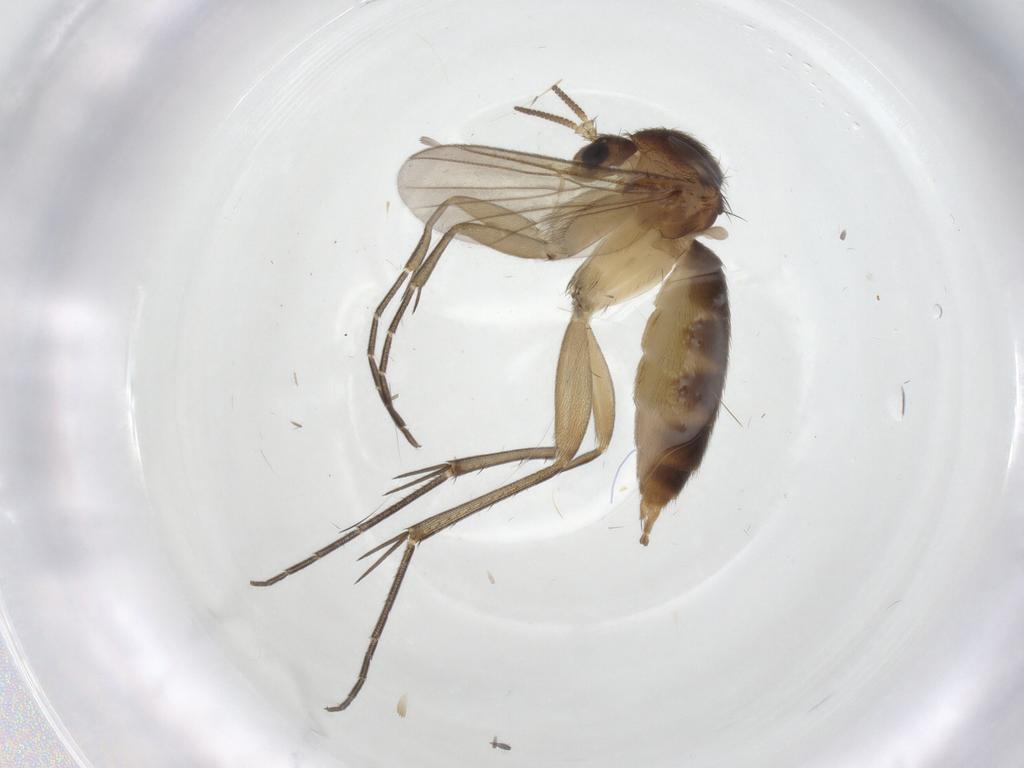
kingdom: Animalia
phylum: Arthropoda
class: Insecta
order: Diptera
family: Mycetophilidae
